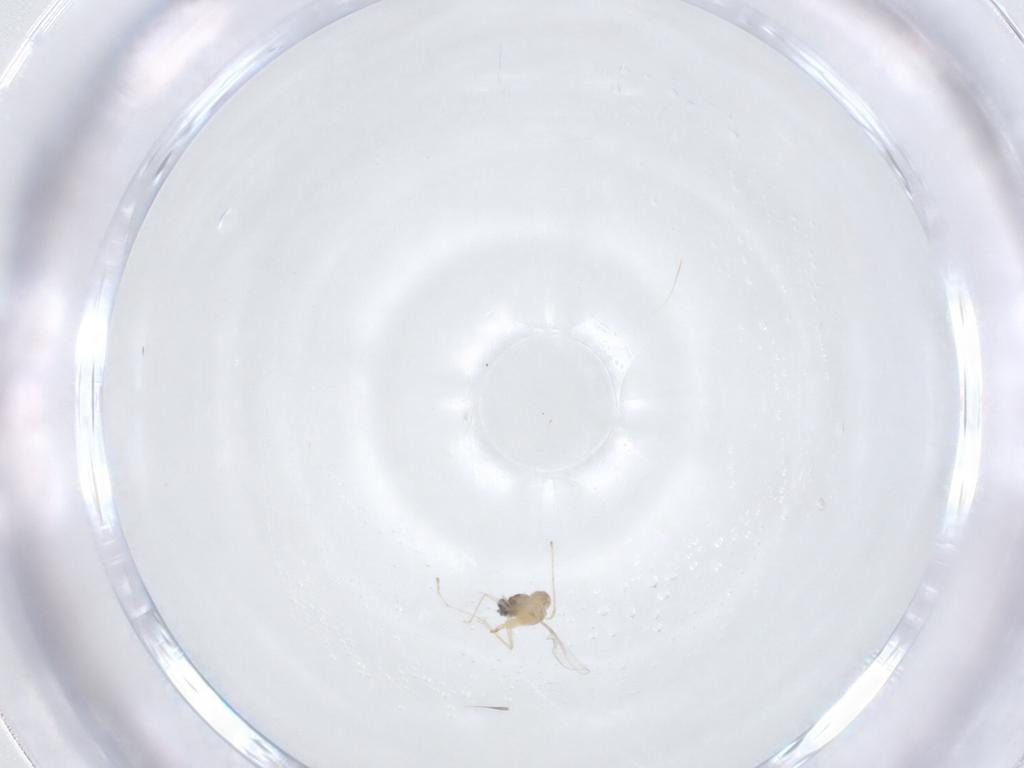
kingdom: Animalia
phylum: Arthropoda
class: Insecta
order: Diptera
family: Cecidomyiidae
